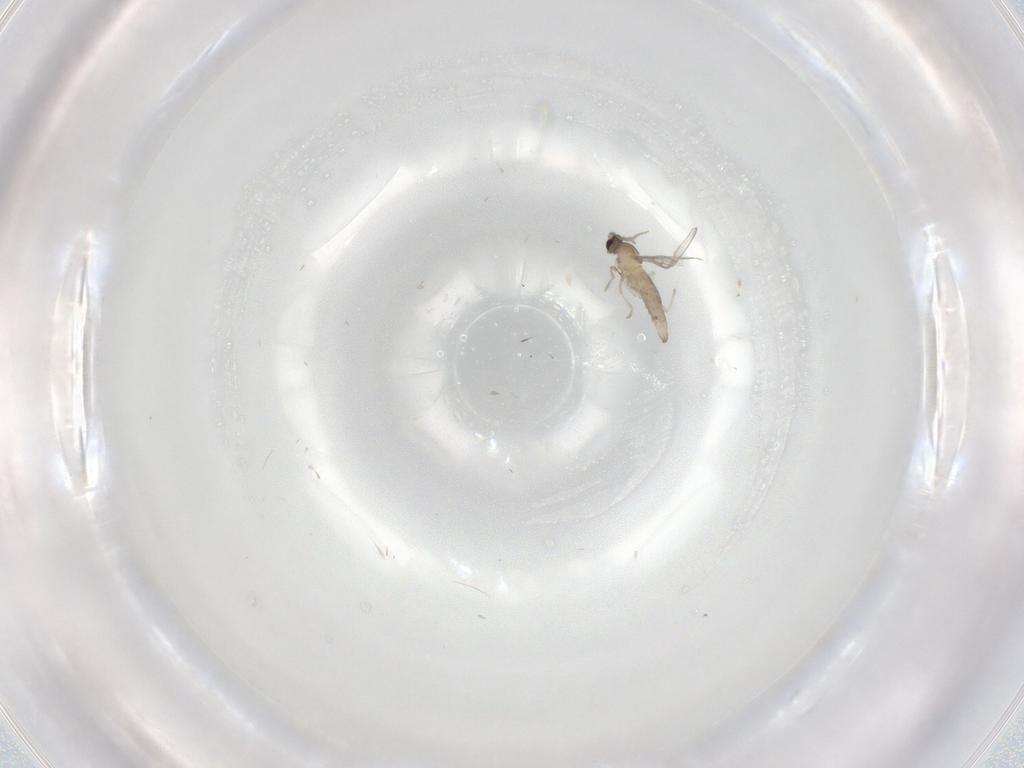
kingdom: Animalia
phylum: Arthropoda
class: Insecta
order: Diptera
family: Cecidomyiidae
